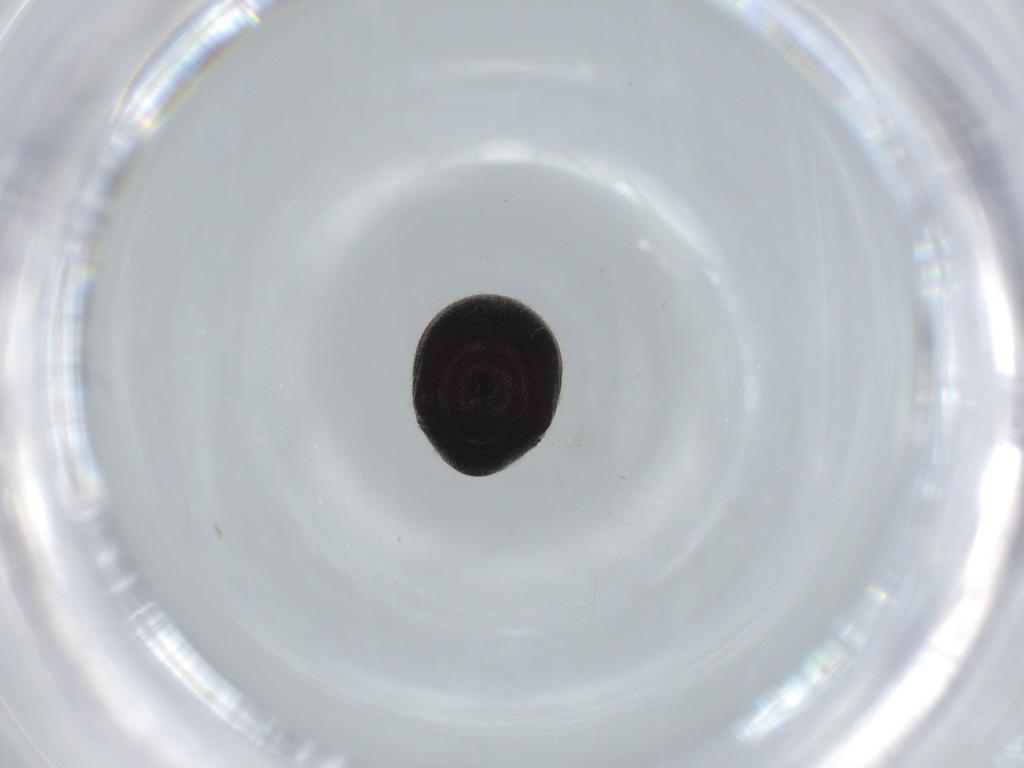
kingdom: Animalia
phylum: Arthropoda
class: Insecta
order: Coleoptera
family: Ptinidae
